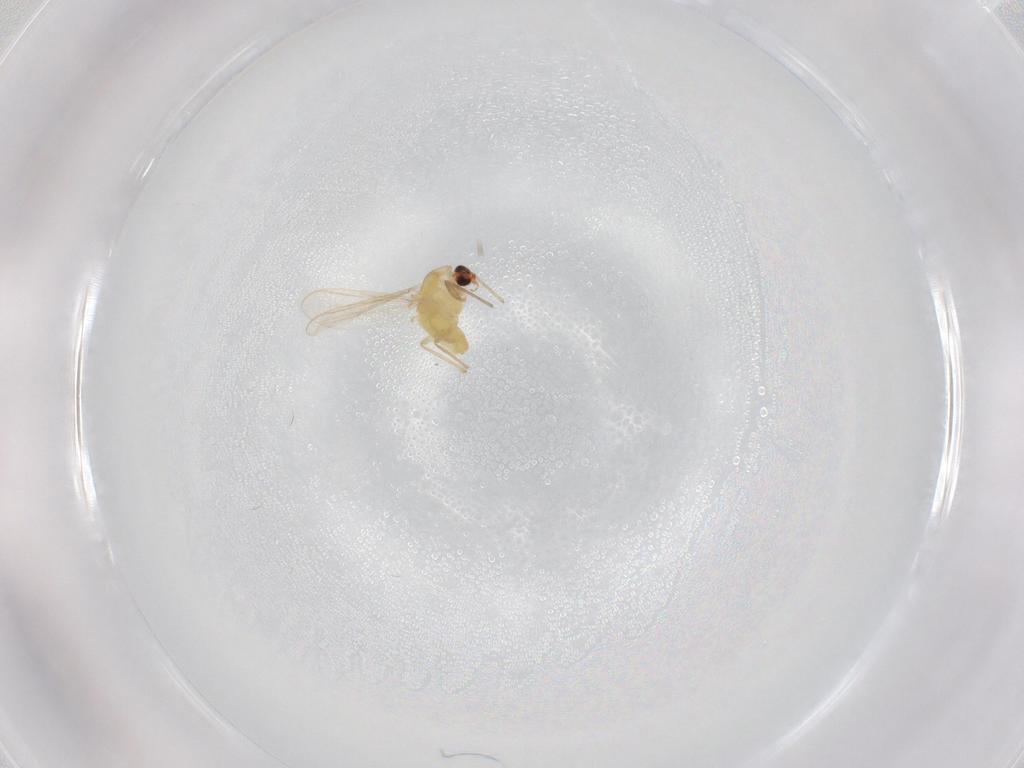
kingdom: Animalia
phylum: Arthropoda
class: Insecta
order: Diptera
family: Chironomidae
